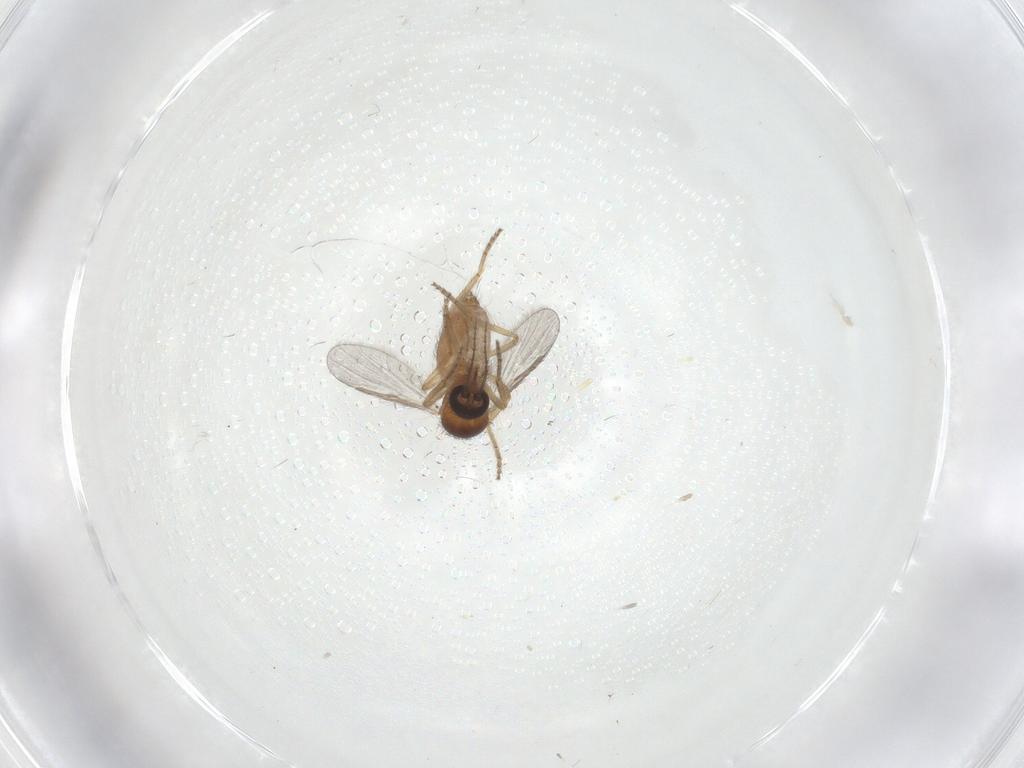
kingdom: Animalia
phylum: Arthropoda
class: Insecta
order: Diptera
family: Ceratopogonidae
